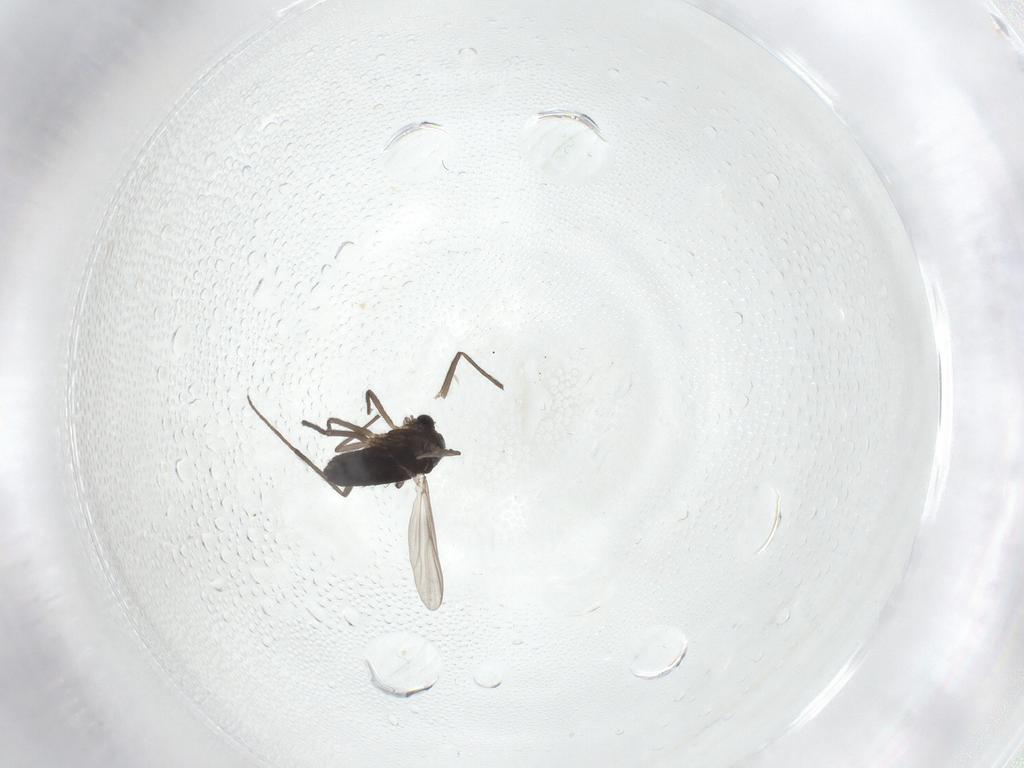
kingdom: Animalia
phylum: Arthropoda
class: Insecta
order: Diptera
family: Chironomidae
